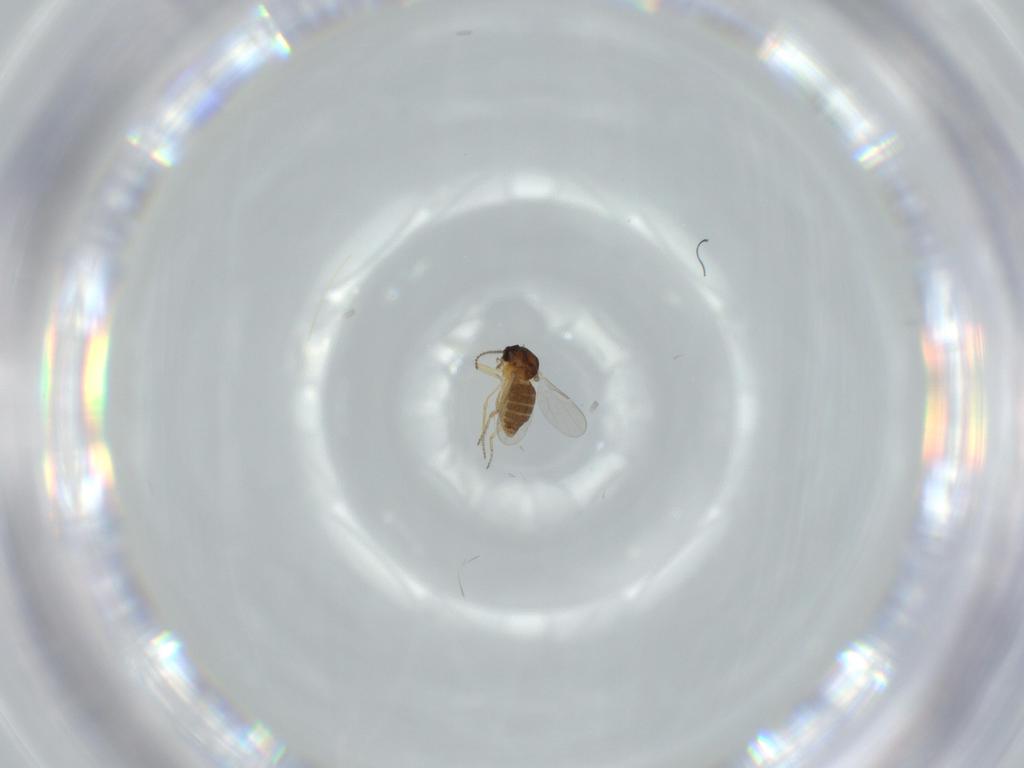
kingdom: Animalia
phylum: Arthropoda
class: Insecta
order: Diptera
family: Ceratopogonidae
